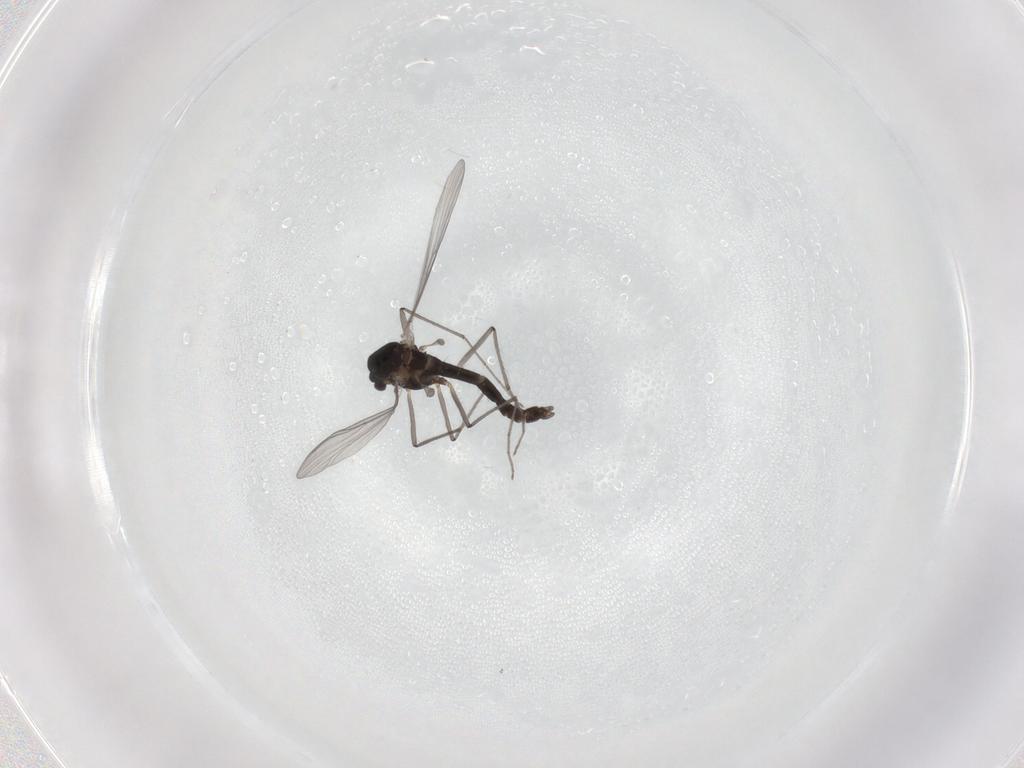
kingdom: Animalia
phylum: Arthropoda
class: Insecta
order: Diptera
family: Chironomidae
